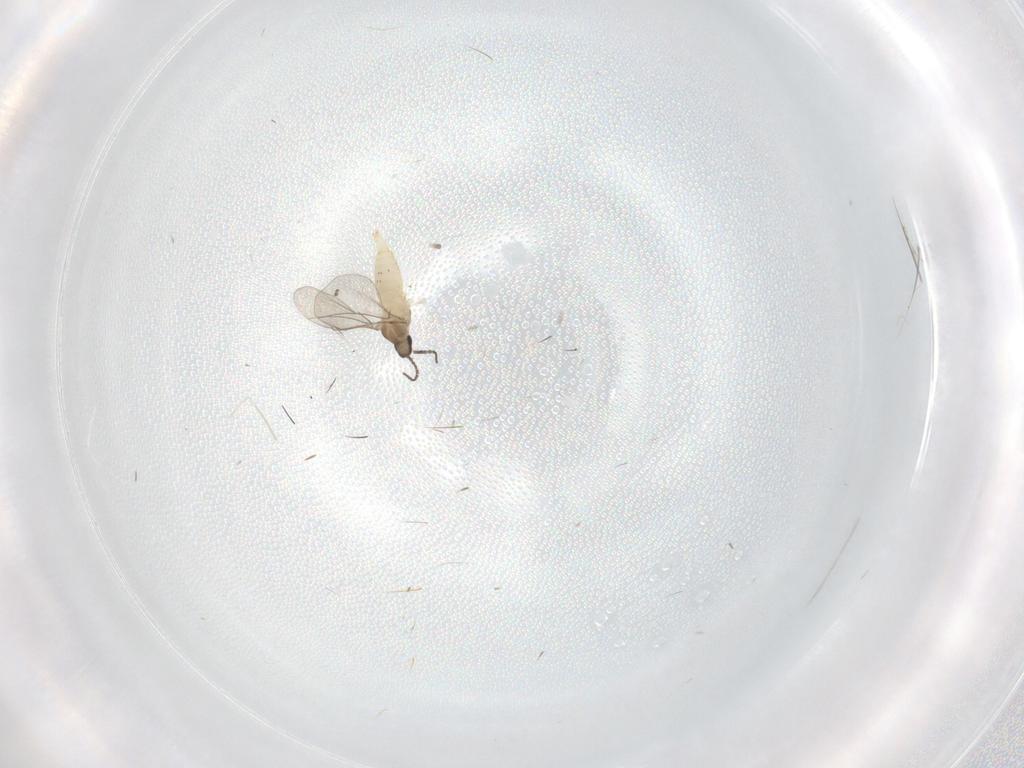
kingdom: Animalia
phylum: Arthropoda
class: Insecta
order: Diptera
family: Cecidomyiidae
